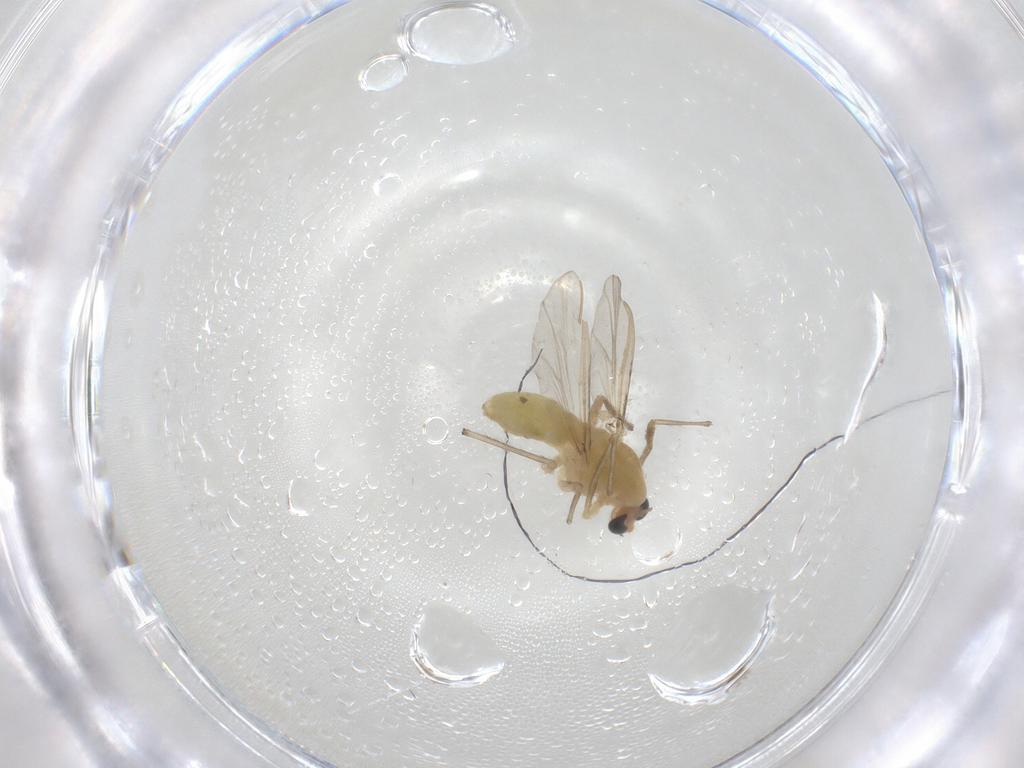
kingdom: Animalia
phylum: Arthropoda
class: Insecta
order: Diptera
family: Chironomidae
